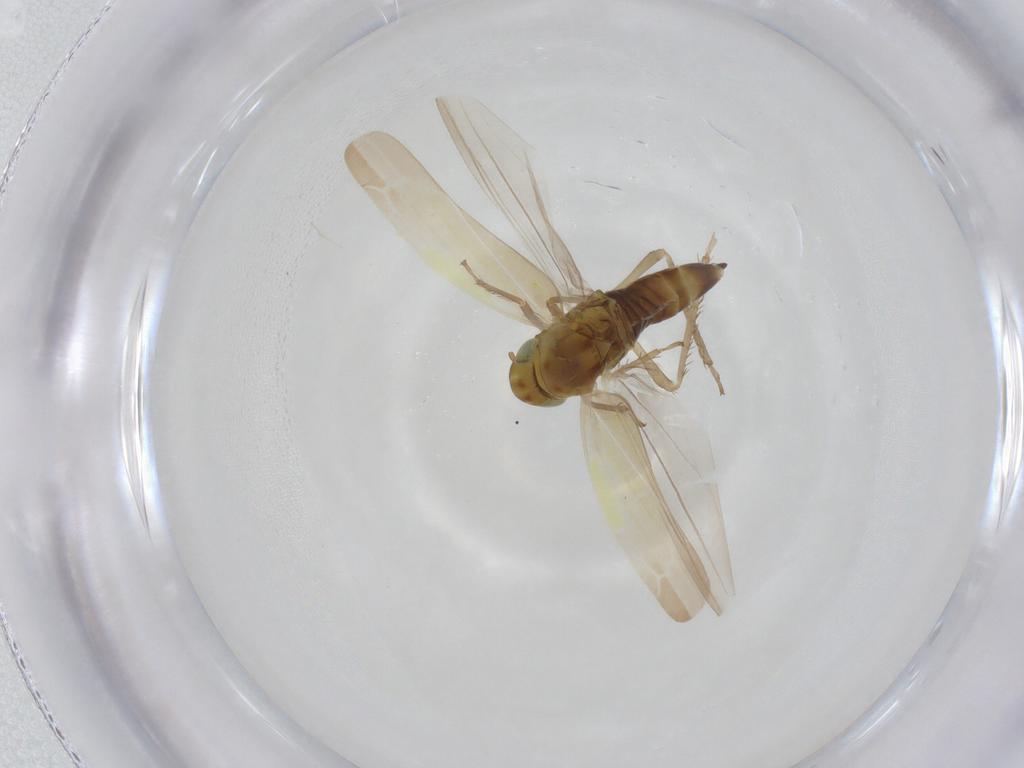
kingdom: Animalia
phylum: Arthropoda
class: Insecta
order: Hemiptera
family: Cicadellidae
